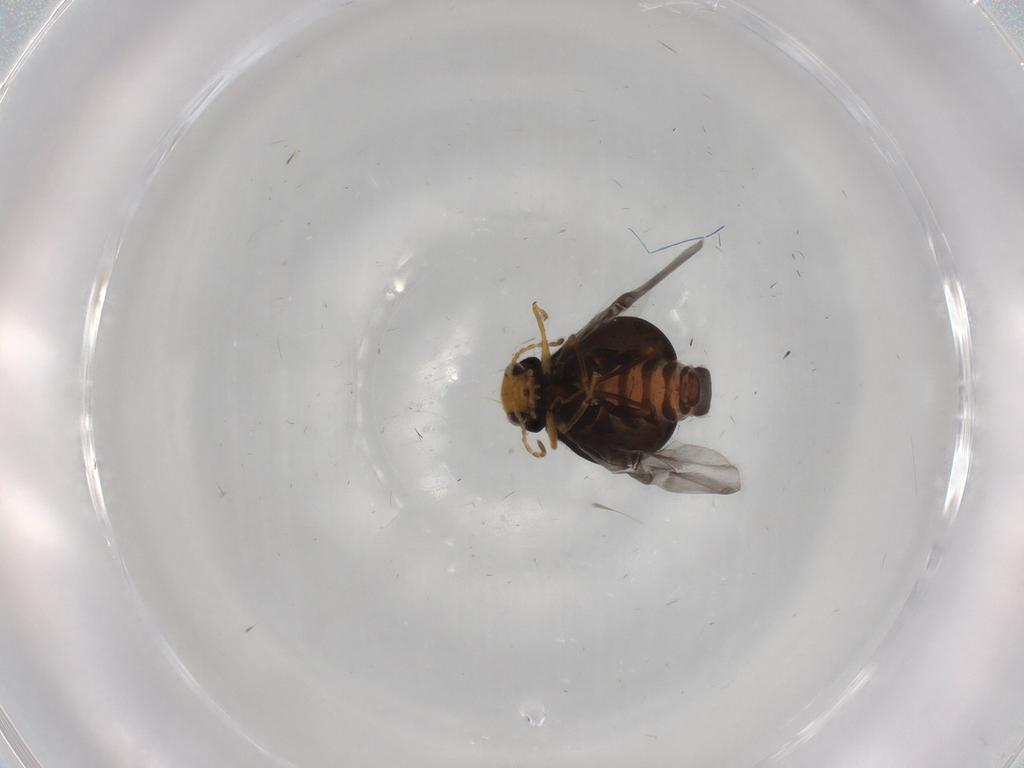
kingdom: Animalia
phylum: Arthropoda
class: Insecta
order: Coleoptera
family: Melyridae
